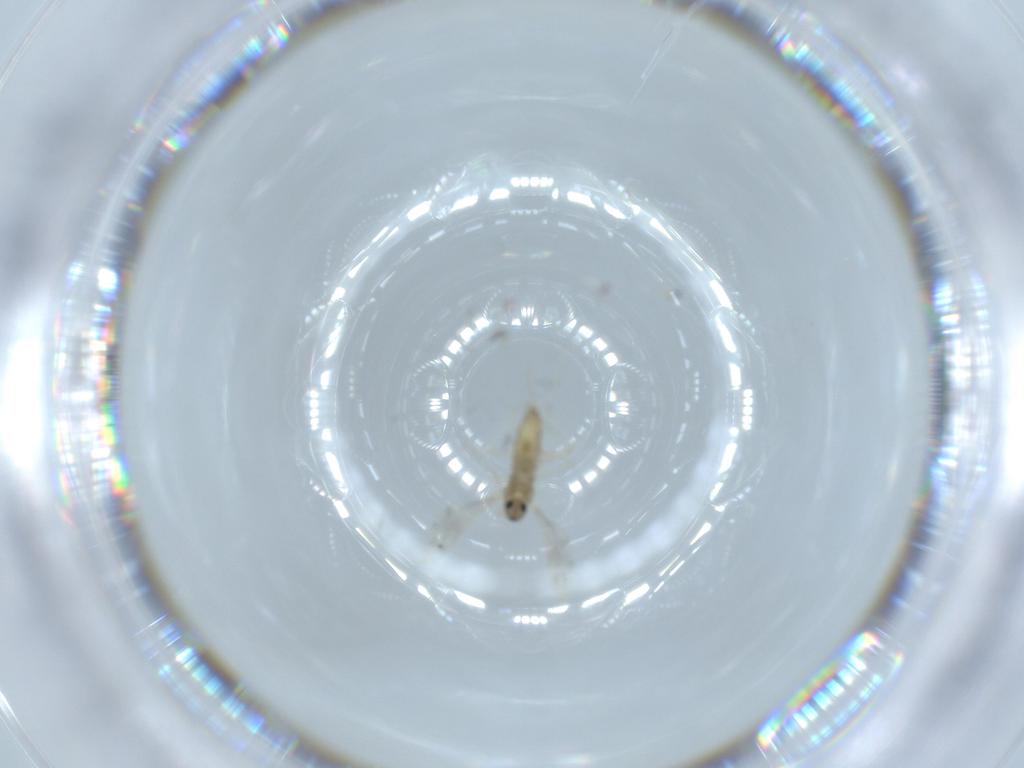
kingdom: Animalia
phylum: Arthropoda
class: Insecta
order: Diptera
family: Cecidomyiidae
